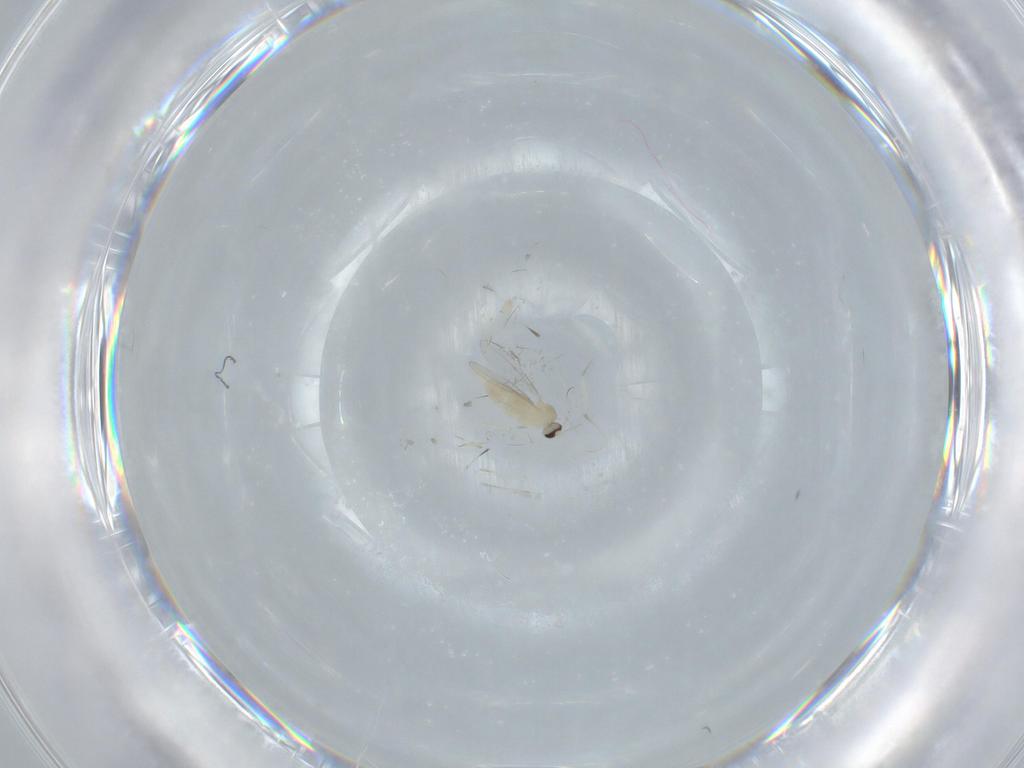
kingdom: Animalia
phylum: Arthropoda
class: Insecta
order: Diptera
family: Cecidomyiidae
